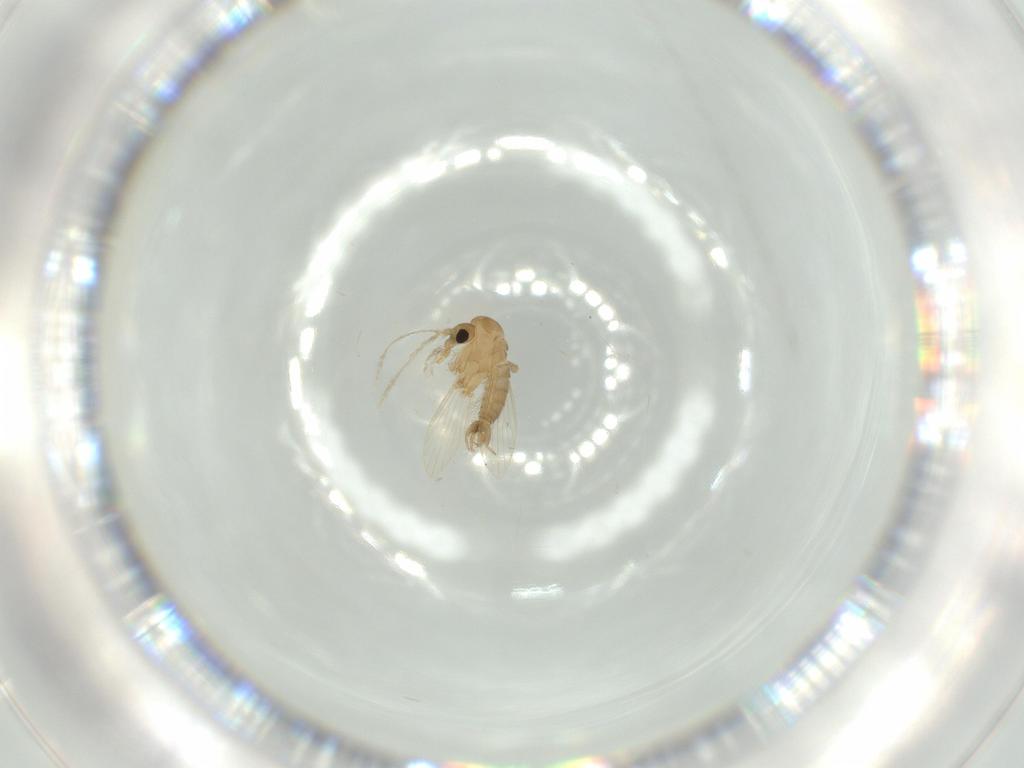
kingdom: Animalia
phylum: Arthropoda
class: Insecta
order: Diptera
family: Psychodidae
